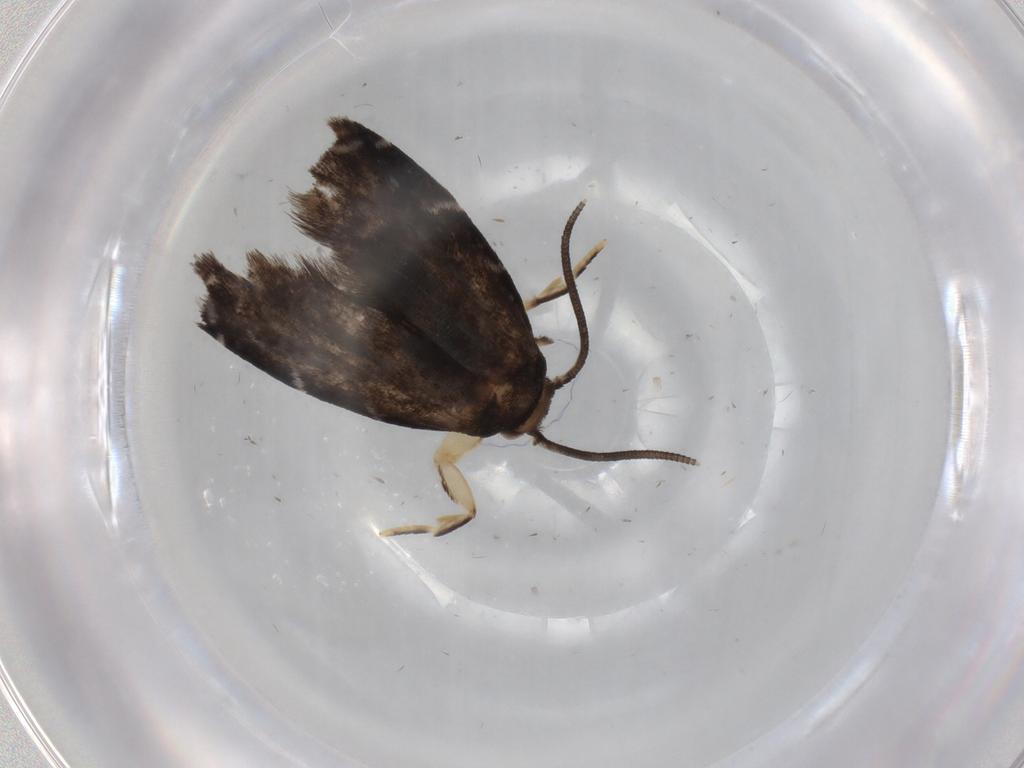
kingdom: Animalia
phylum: Arthropoda
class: Insecta
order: Lepidoptera
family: Dryadaulidae
